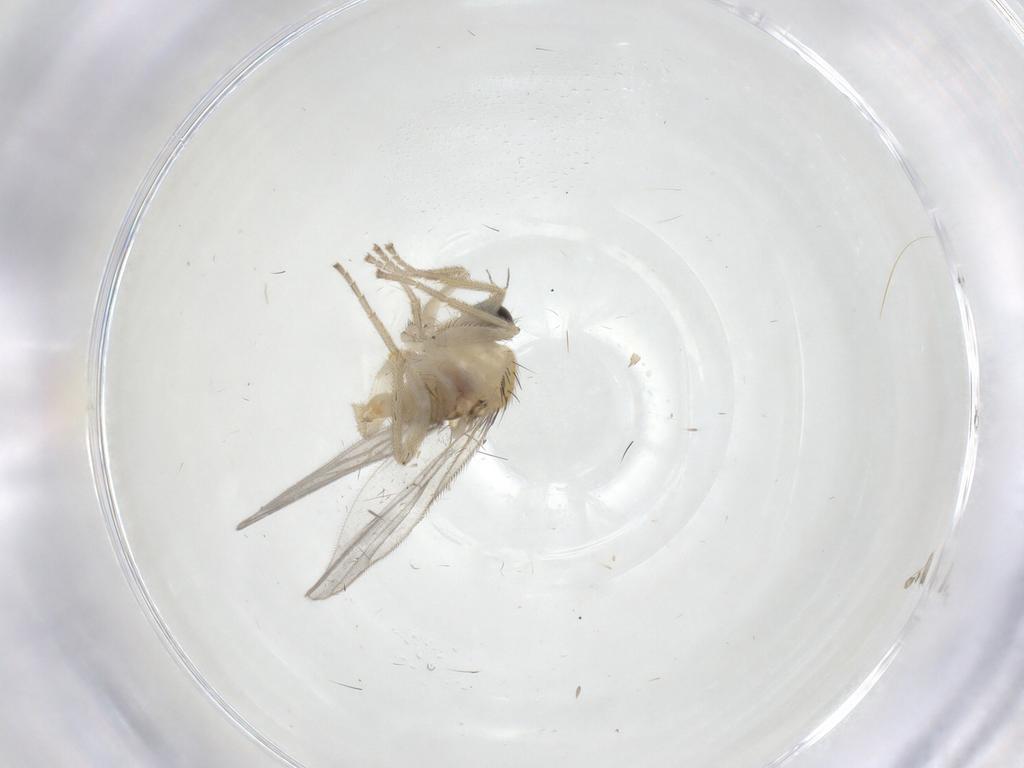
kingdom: Animalia
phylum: Arthropoda
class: Insecta
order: Diptera
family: Hybotidae
